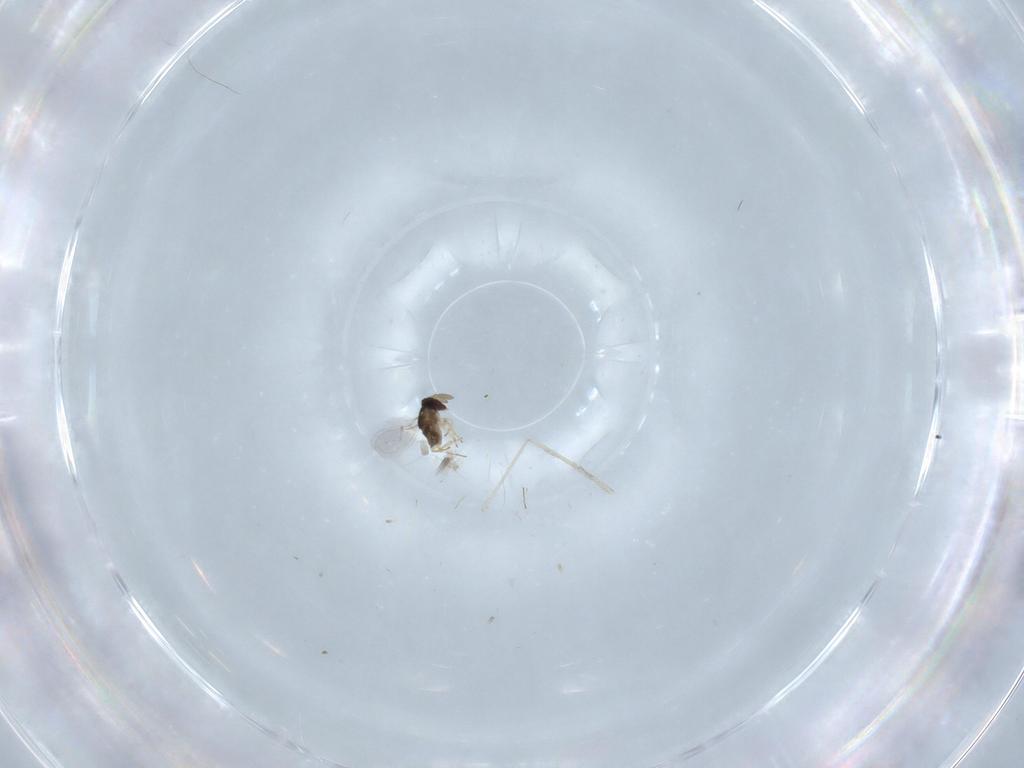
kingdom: Animalia
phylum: Arthropoda
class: Insecta
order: Hymenoptera
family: Encyrtidae
